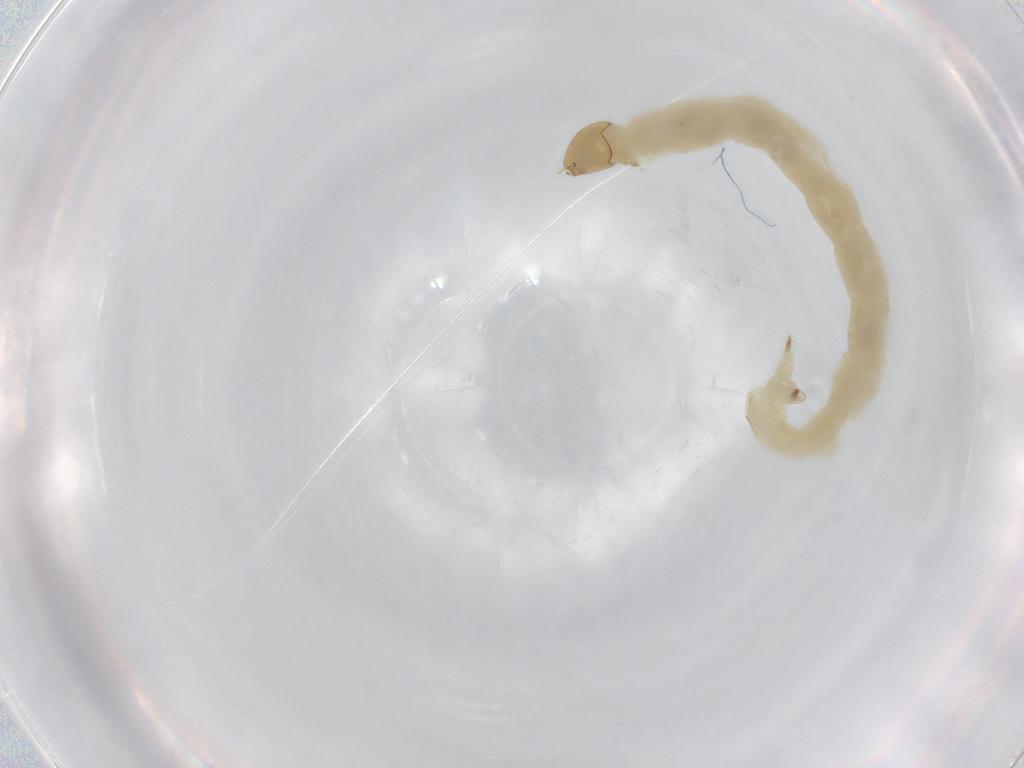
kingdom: Animalia
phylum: Arthropoda
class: Insecta
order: Diptera
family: Chironomidae
